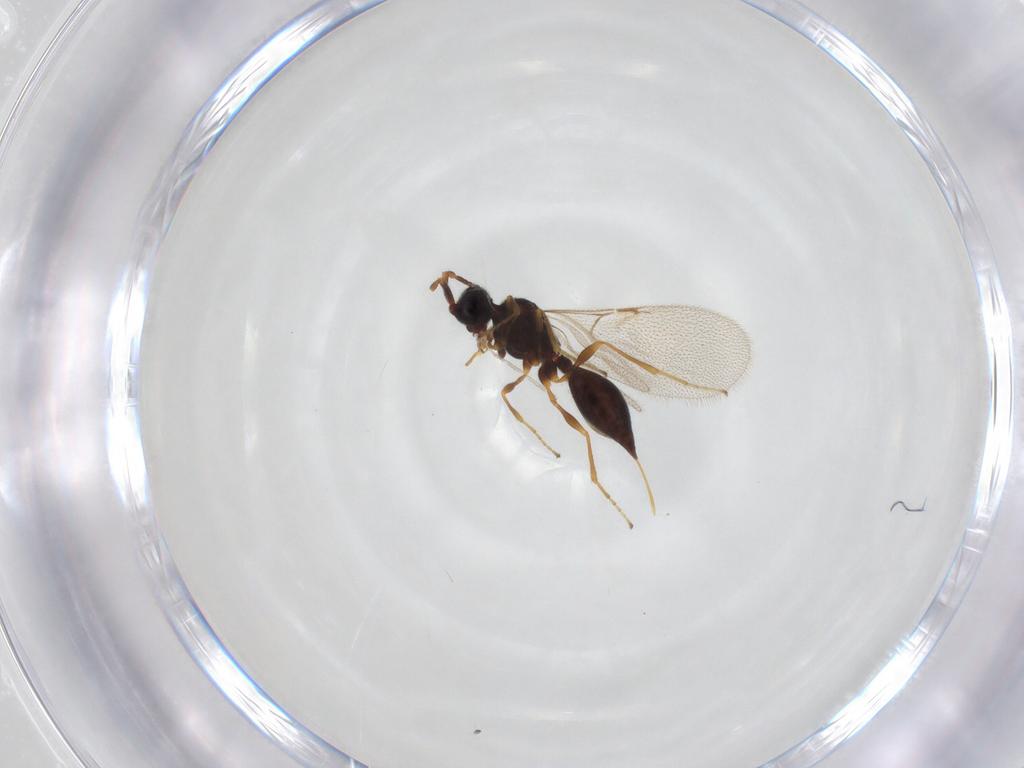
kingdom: Animalia
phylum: Arthropoda
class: Insecta
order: Hymenoptera
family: Diapriidae
